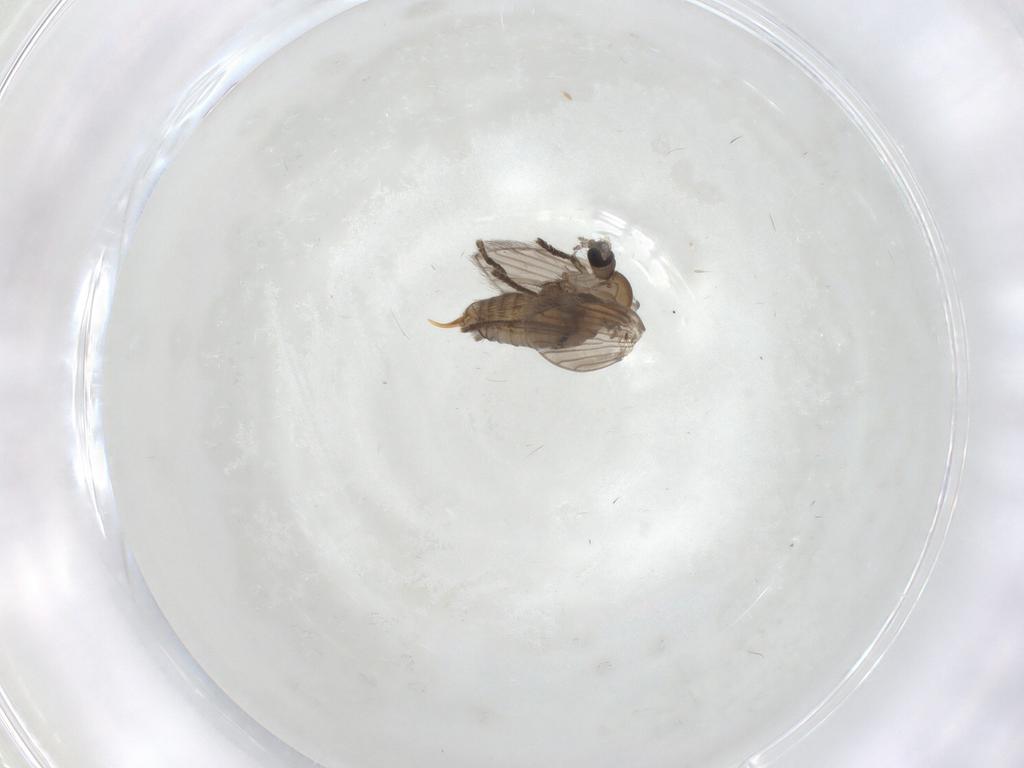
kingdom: Animalia
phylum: Arthropoda
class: Insecta
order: Diptera
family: Psychodidae
